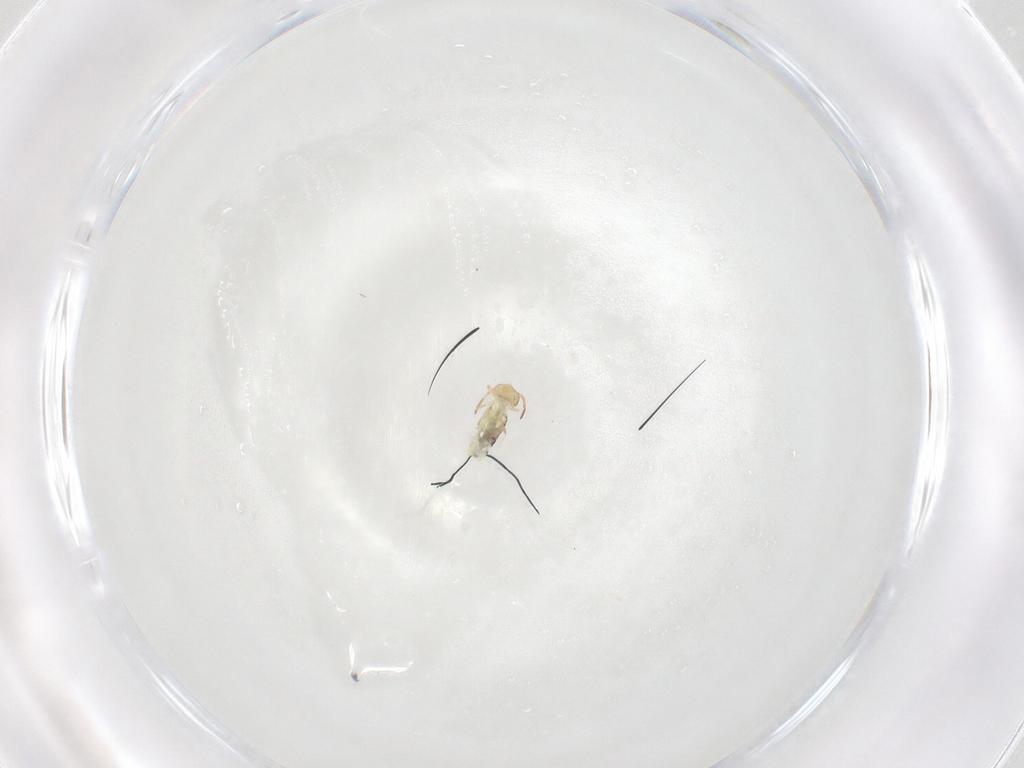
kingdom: Animalia
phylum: Arthropoda
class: Collembola
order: Symphypleona
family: Bourletiellidae
